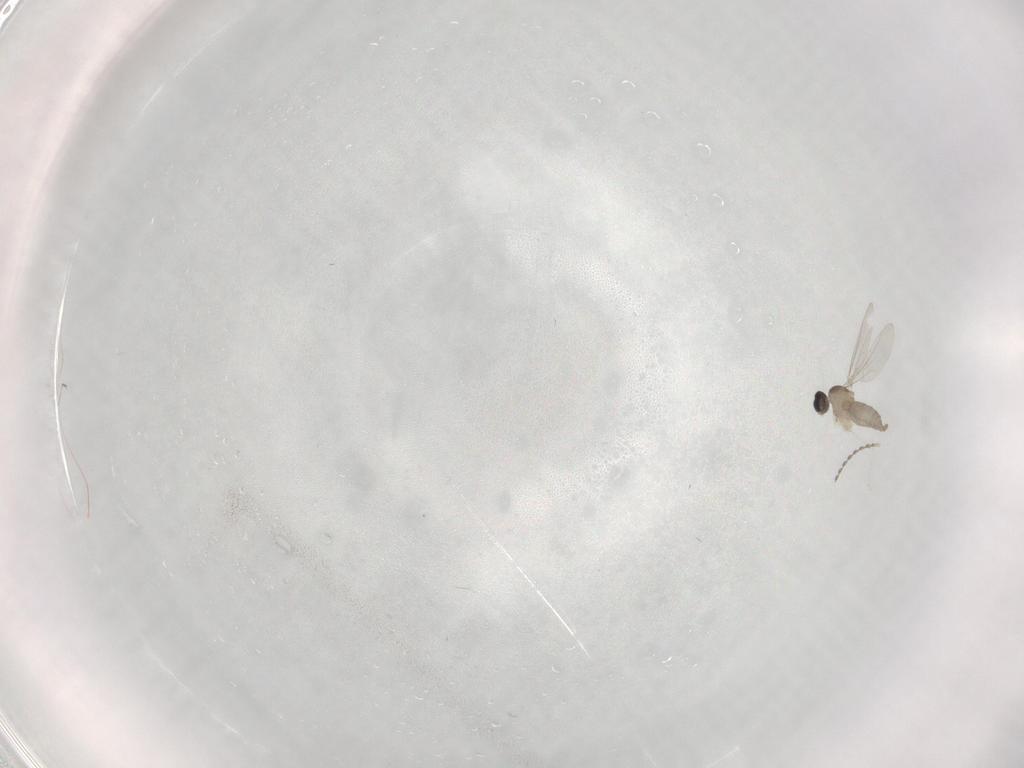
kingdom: Animalia
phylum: Arthropoda
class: Insecta
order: Diptera
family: Cecidomyiidae
